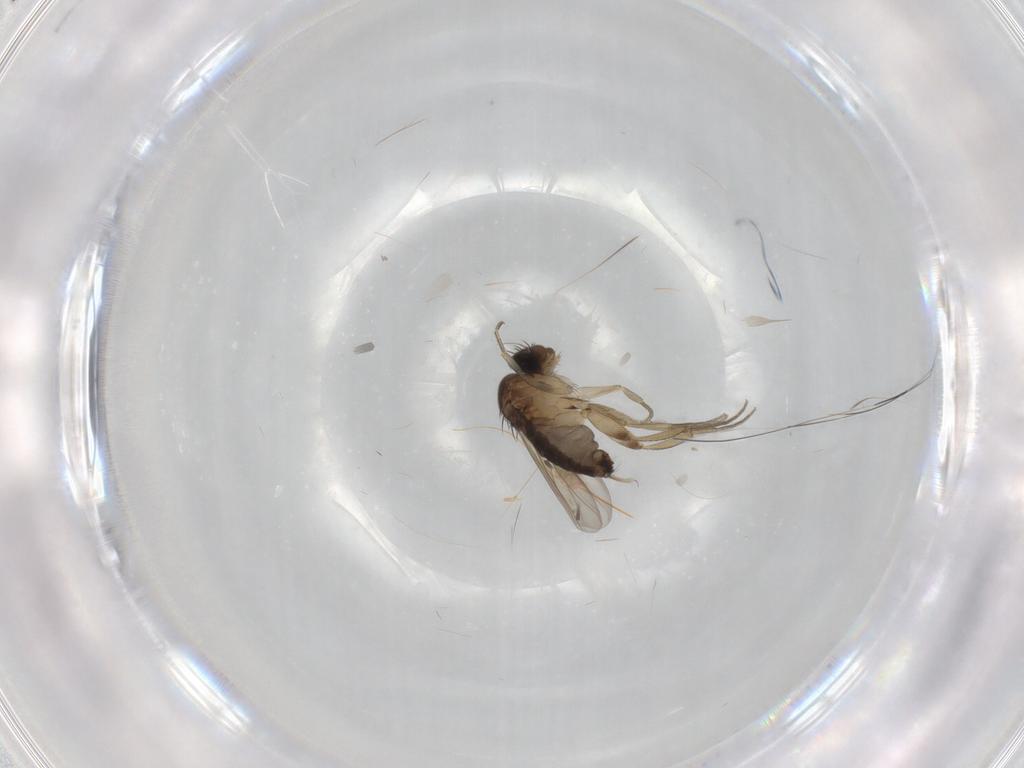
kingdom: Animalia
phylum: Arthropoda
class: Insecta
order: Diptera
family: Phoridae
